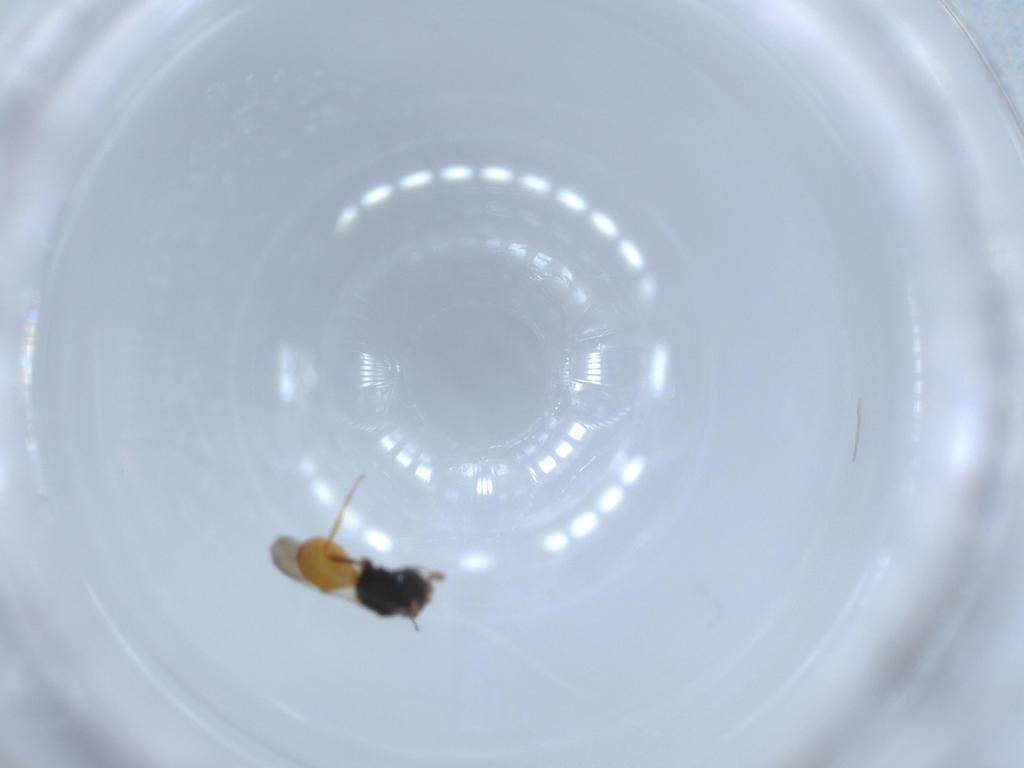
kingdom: Animalia
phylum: Arthropoda
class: Insecta
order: Hymenoptera
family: Scelionidae
